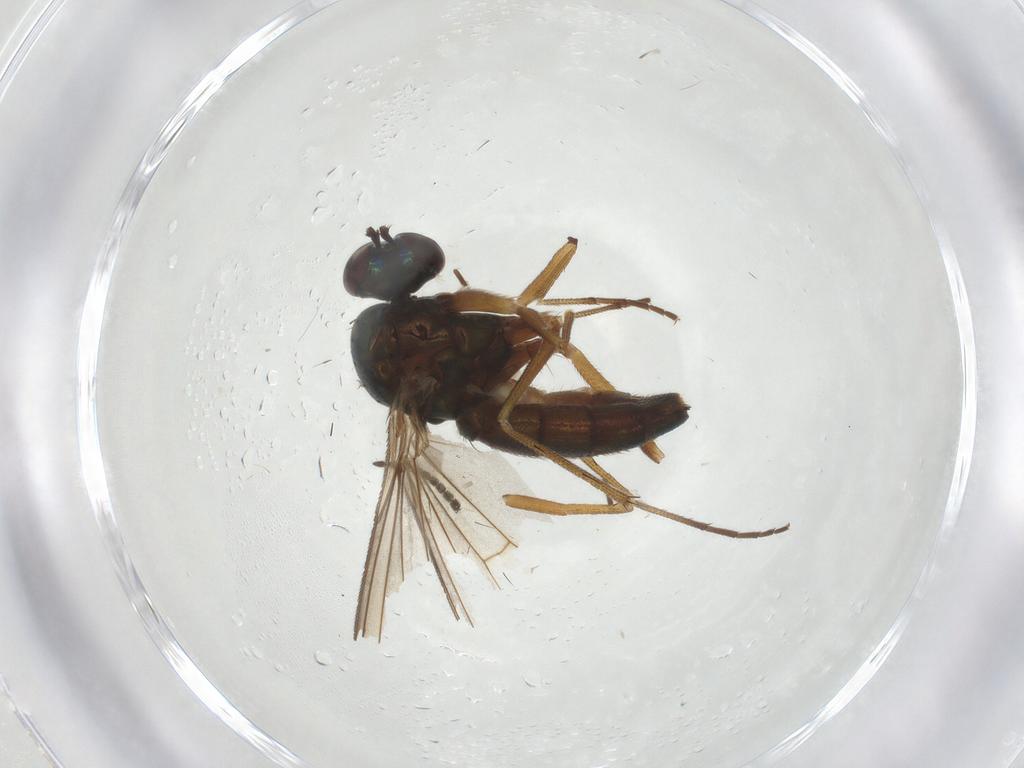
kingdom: Animalia
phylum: Arthropoda
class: Insecta
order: Diptera
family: Dolichopodidae
